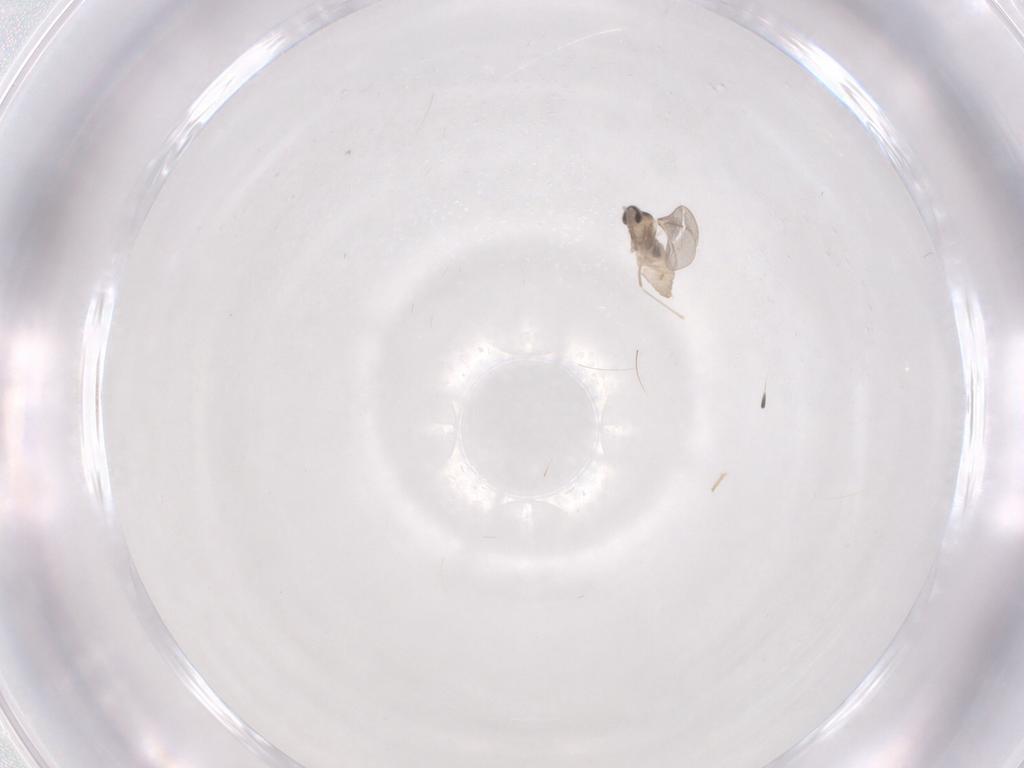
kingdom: Animalia
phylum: Arthropoda
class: Insecta
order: Diptera
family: Cecidomyiidae
